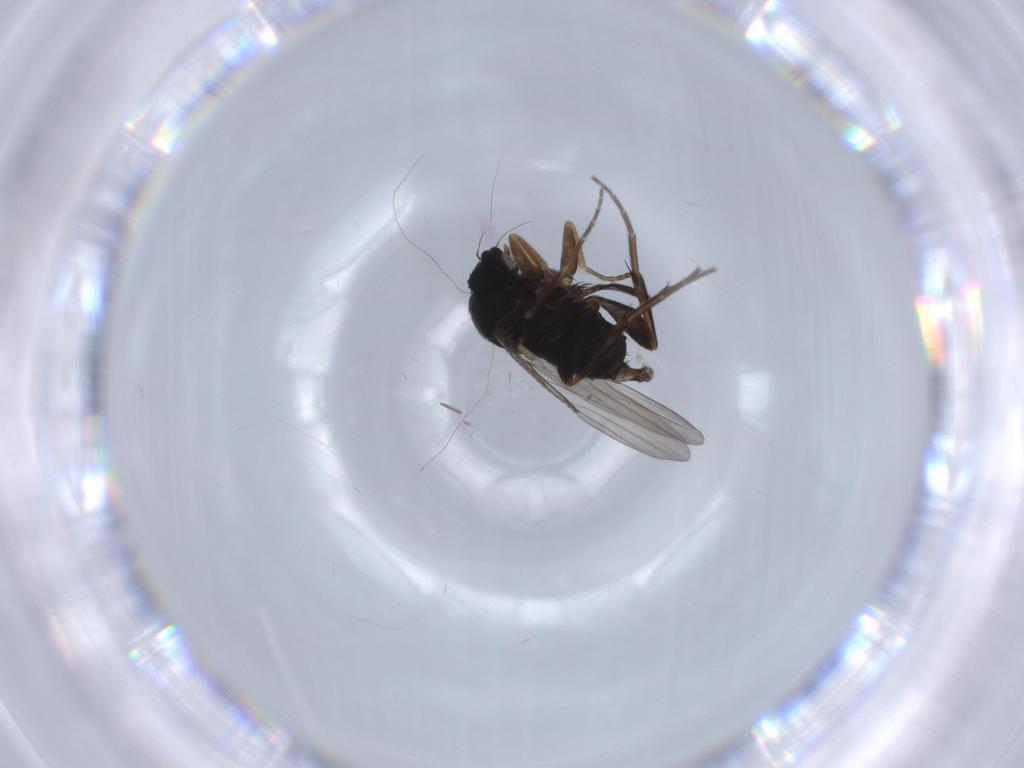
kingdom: Animalia
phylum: Arthropoda
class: Insecta
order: Diptera
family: Phoridae
